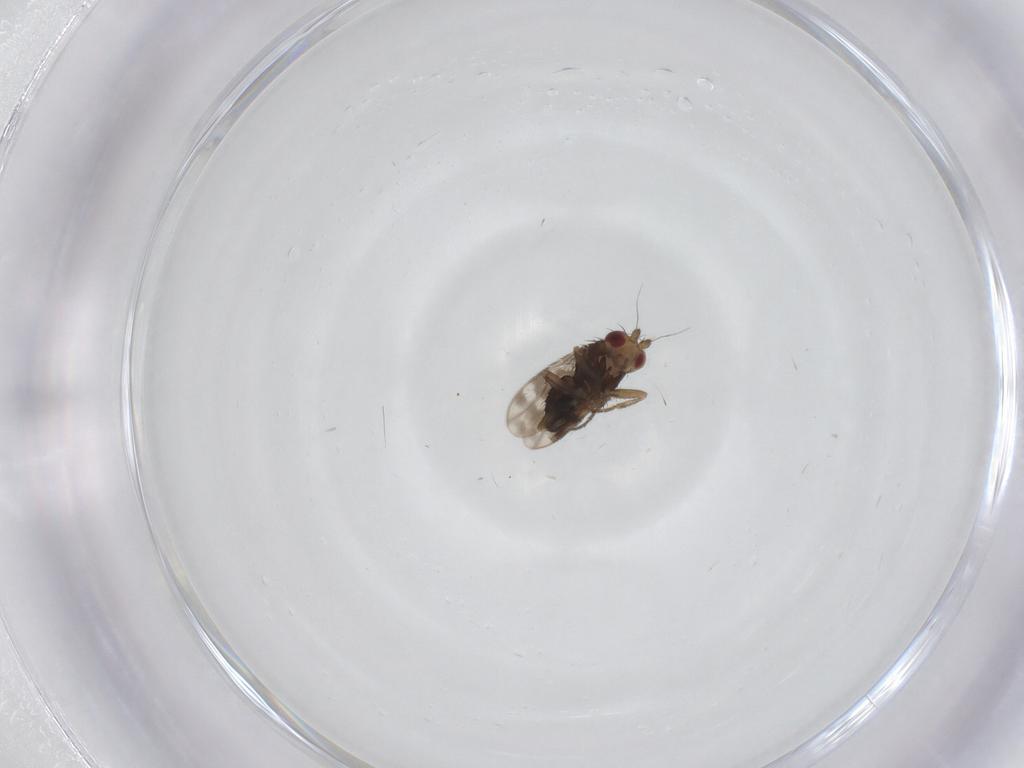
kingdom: Animalia
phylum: Arthropoda
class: Insecta
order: Diptera
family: Sphaeroceridae
